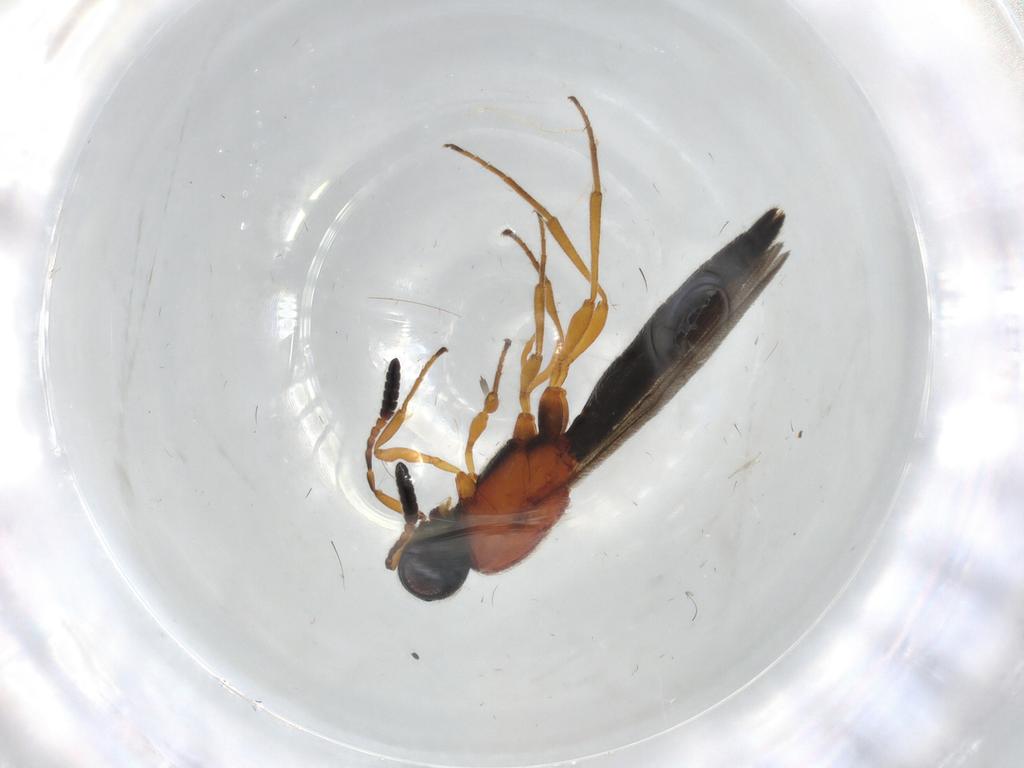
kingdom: Animalia
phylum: Arthropoda
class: Insecta
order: Hymenoptera
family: Scelionidae
